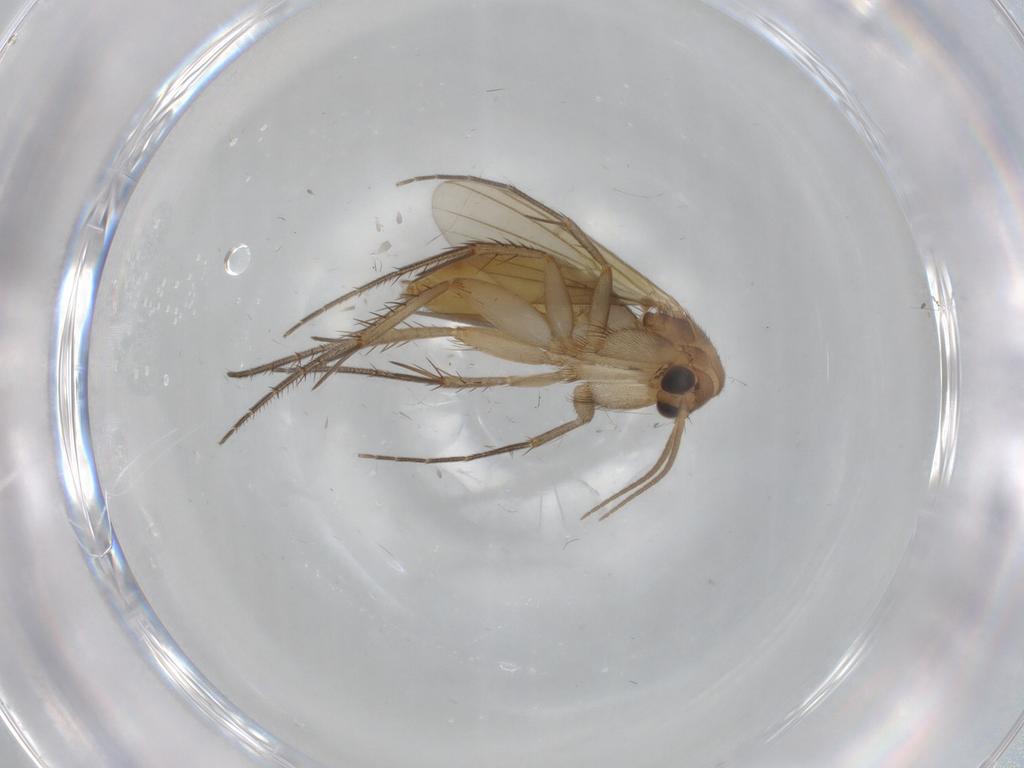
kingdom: Animalia
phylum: Arthropoda
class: Insecta
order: Diptera
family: Mycetophilidae
